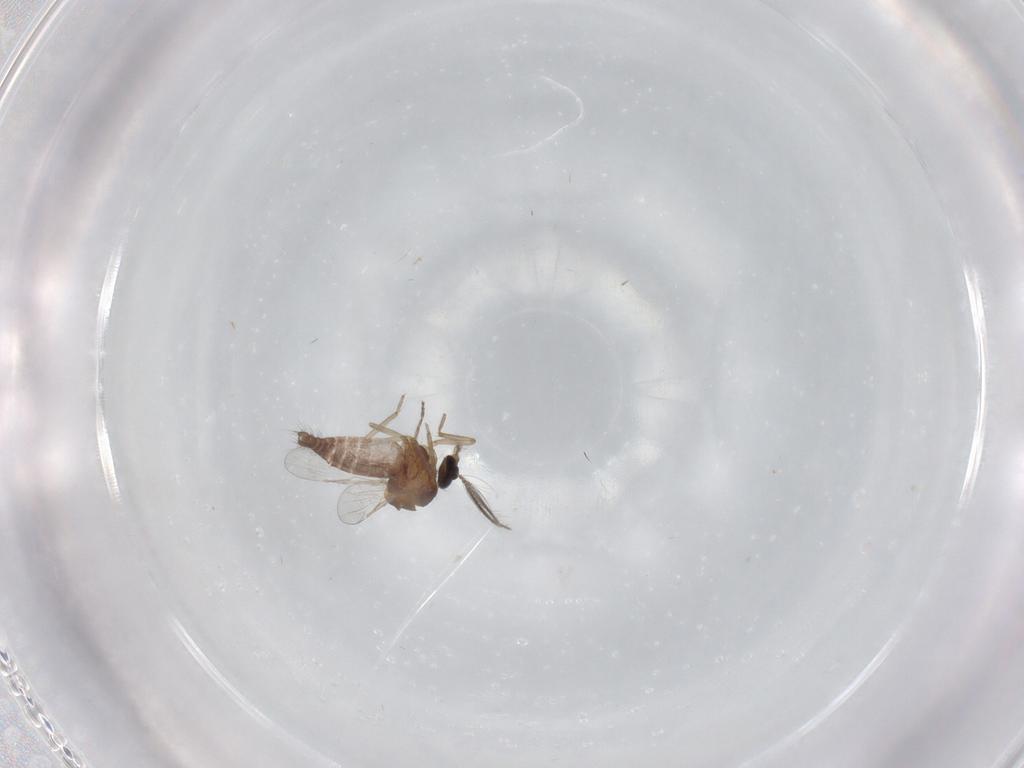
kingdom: Animalia
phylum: Arthropoda
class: Insecta
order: Diptera
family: Ceratopogonidae
